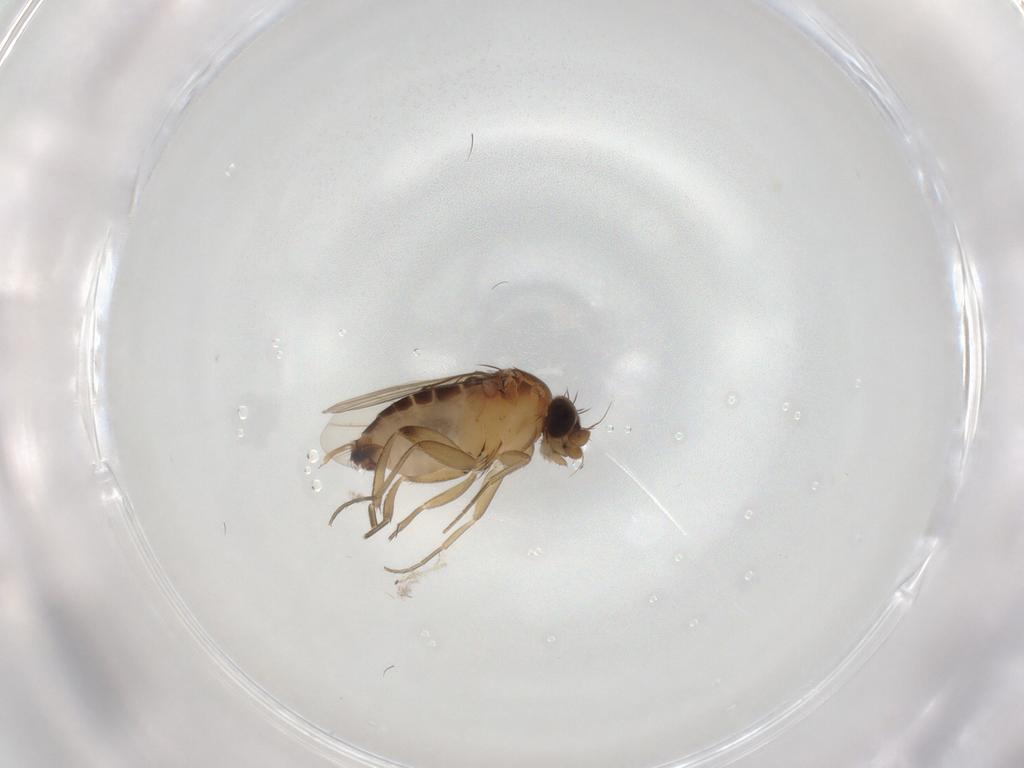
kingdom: Animalia
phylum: Arthropoda
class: Insecta
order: Diptera
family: Phoridae
